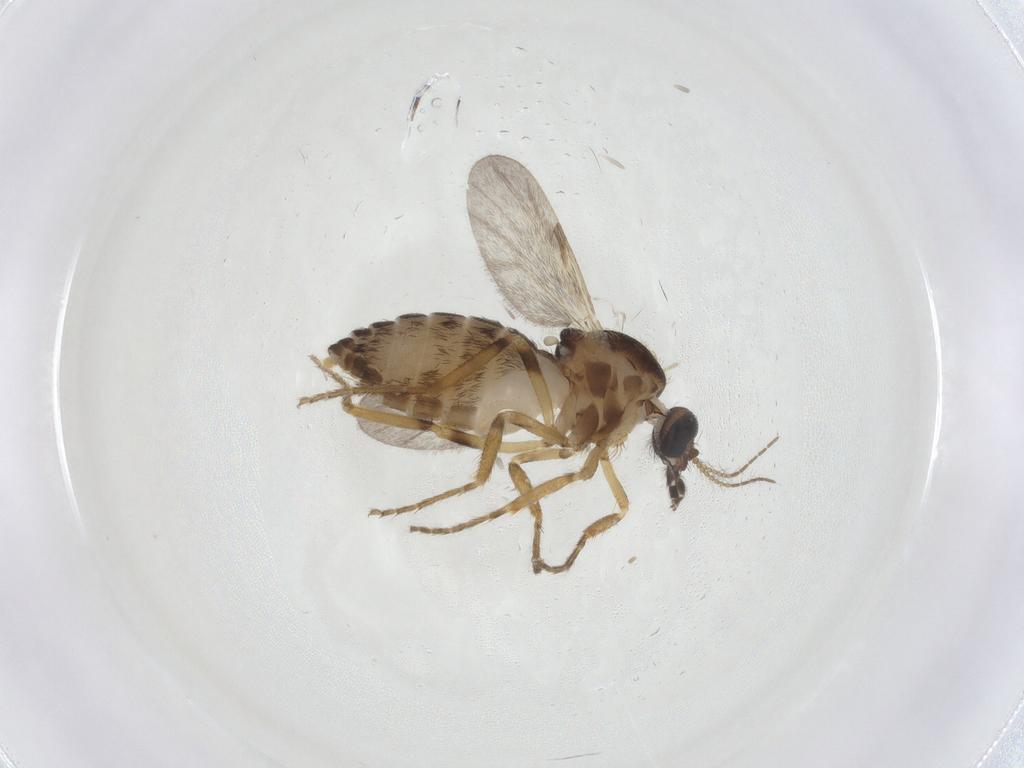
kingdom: Animalia
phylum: Arthropoda
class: Insecta
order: Diptera
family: Ceratopogonidae
